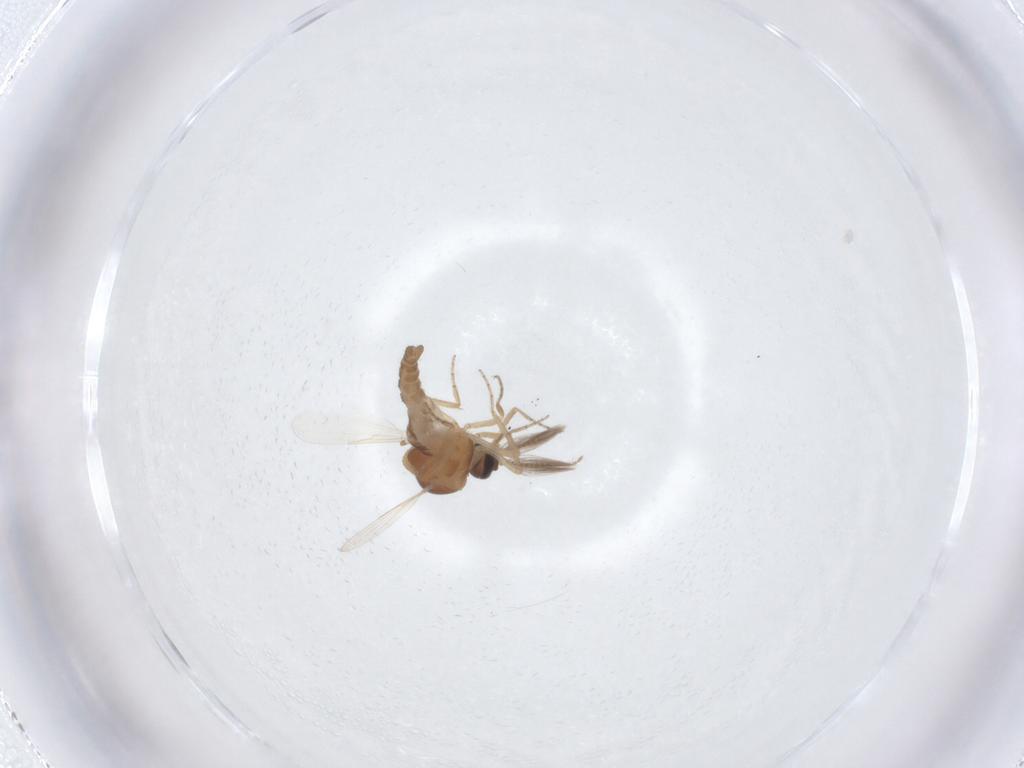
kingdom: Animalia
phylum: Arthropoda
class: Insecta
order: Diptera
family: Ceratopogonidae
